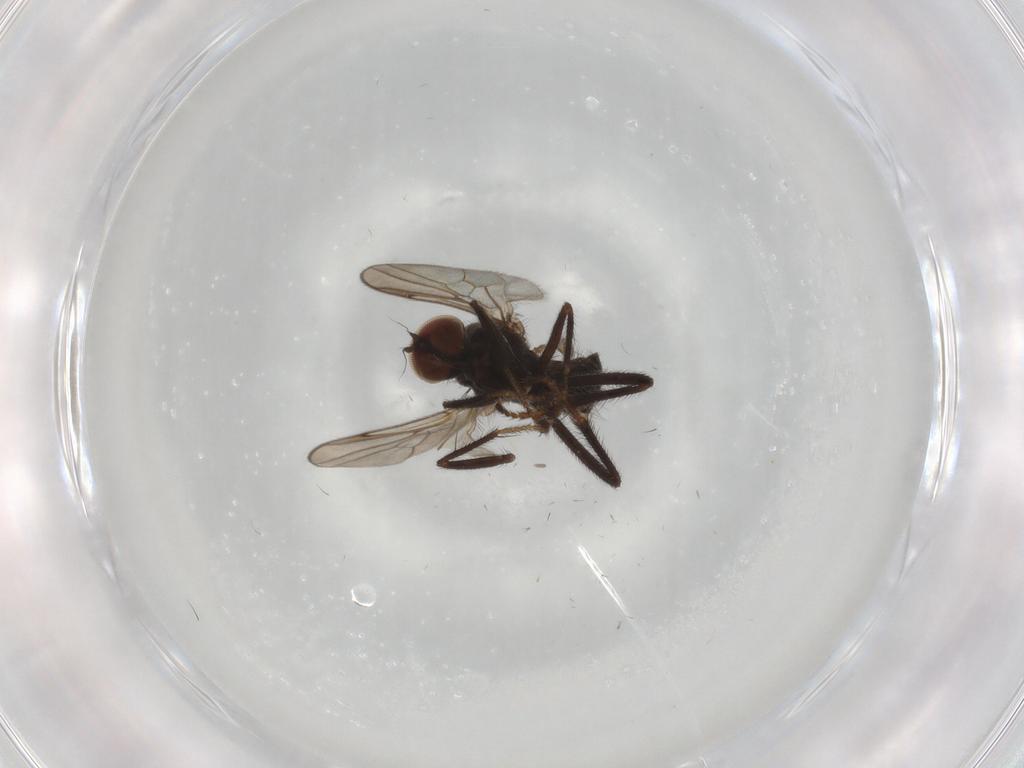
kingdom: Animalia
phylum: Arthropoda
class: Insecta
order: Diptera
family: Hybotidae
